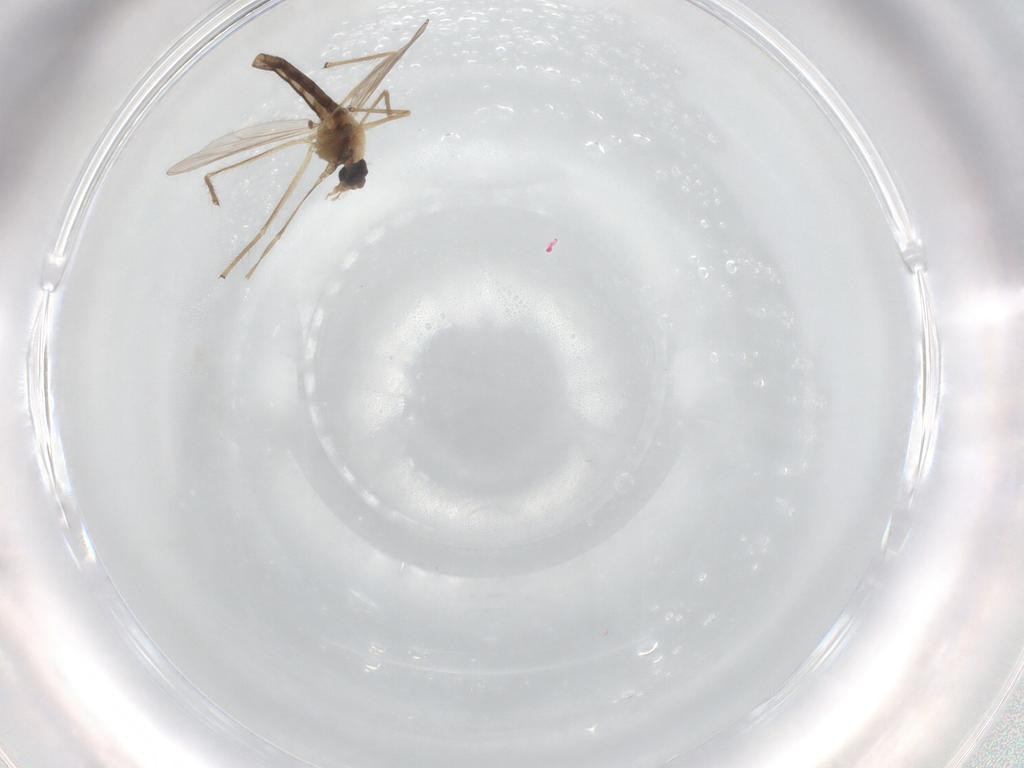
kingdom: Animalia
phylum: Arthropoda
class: Insecta
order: Diptera
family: Chironomidae
